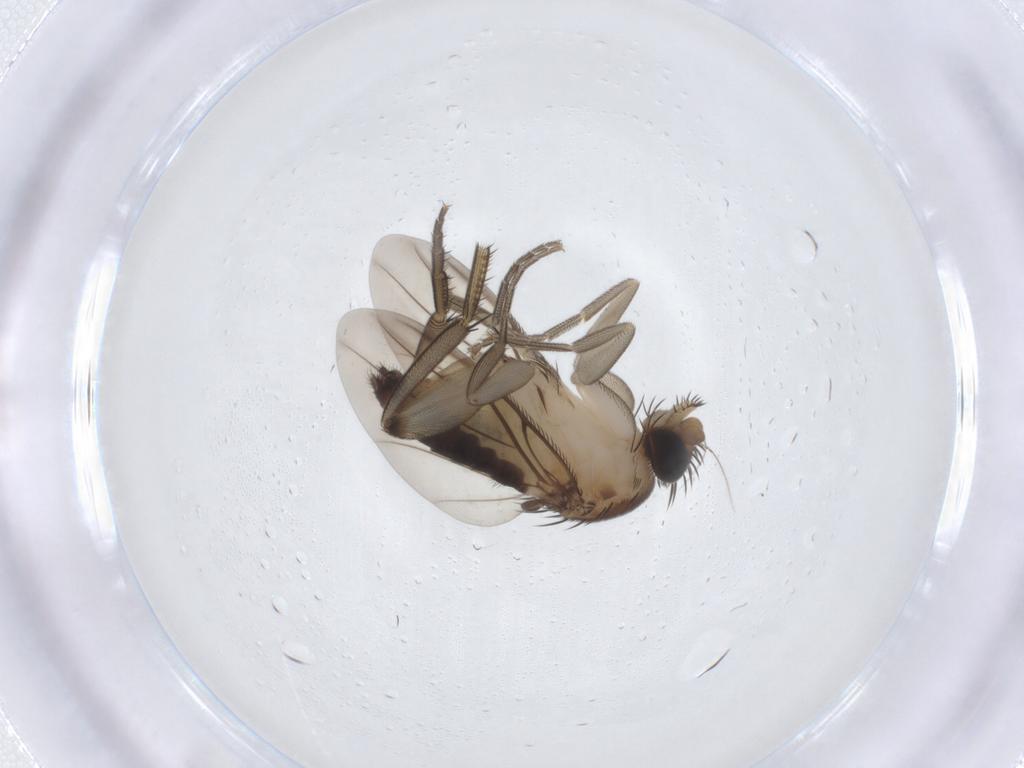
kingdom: Animalia
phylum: Arthropoda
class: Insecta
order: Diptera
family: Phoridae
